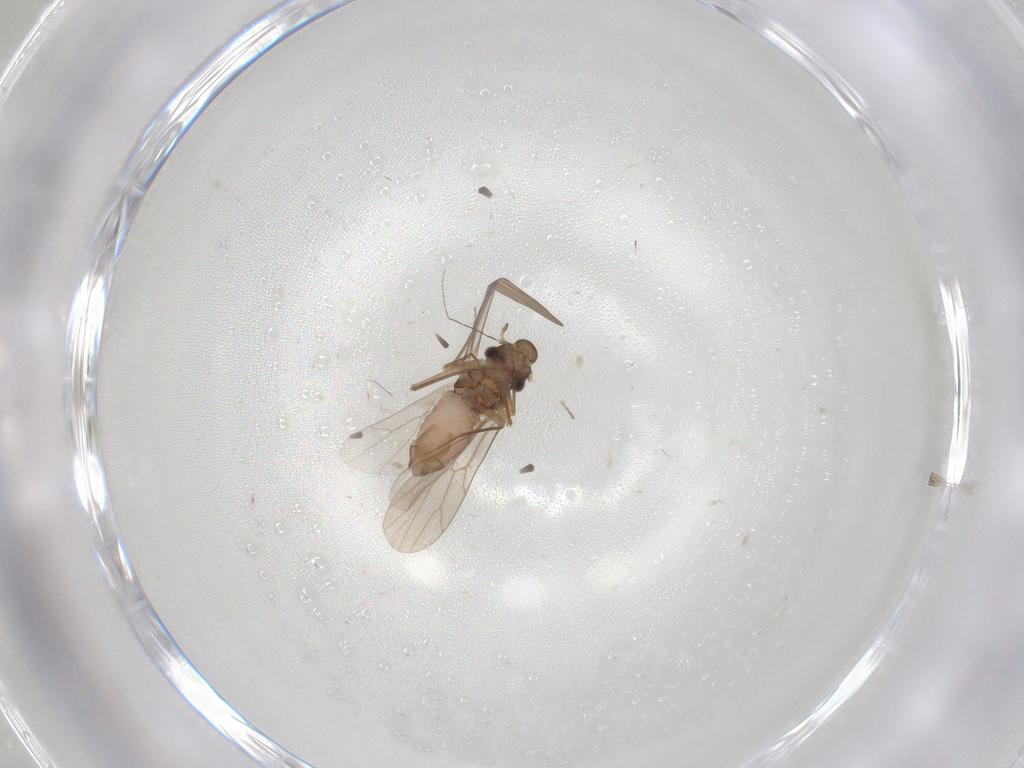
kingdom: Animalia
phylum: Arthropoda
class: Insecta
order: Psocodea
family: Lepidopsocidae
